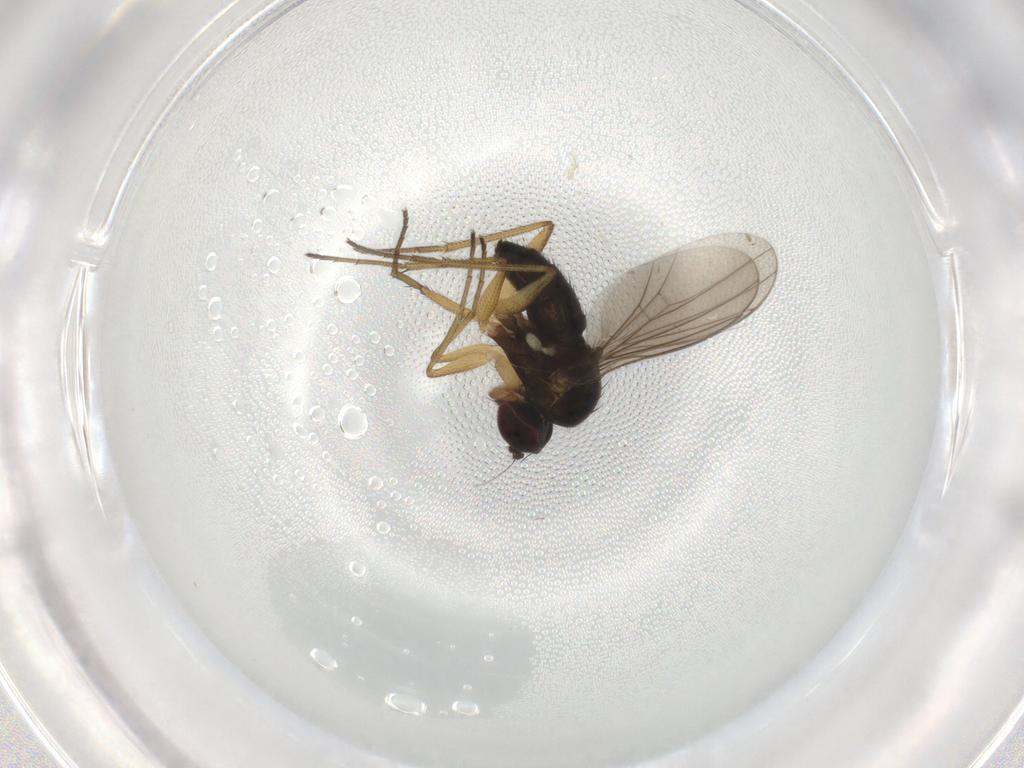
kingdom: Animalia
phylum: Arthropoda
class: Insecta
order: Diptera
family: Dolichopodidae
